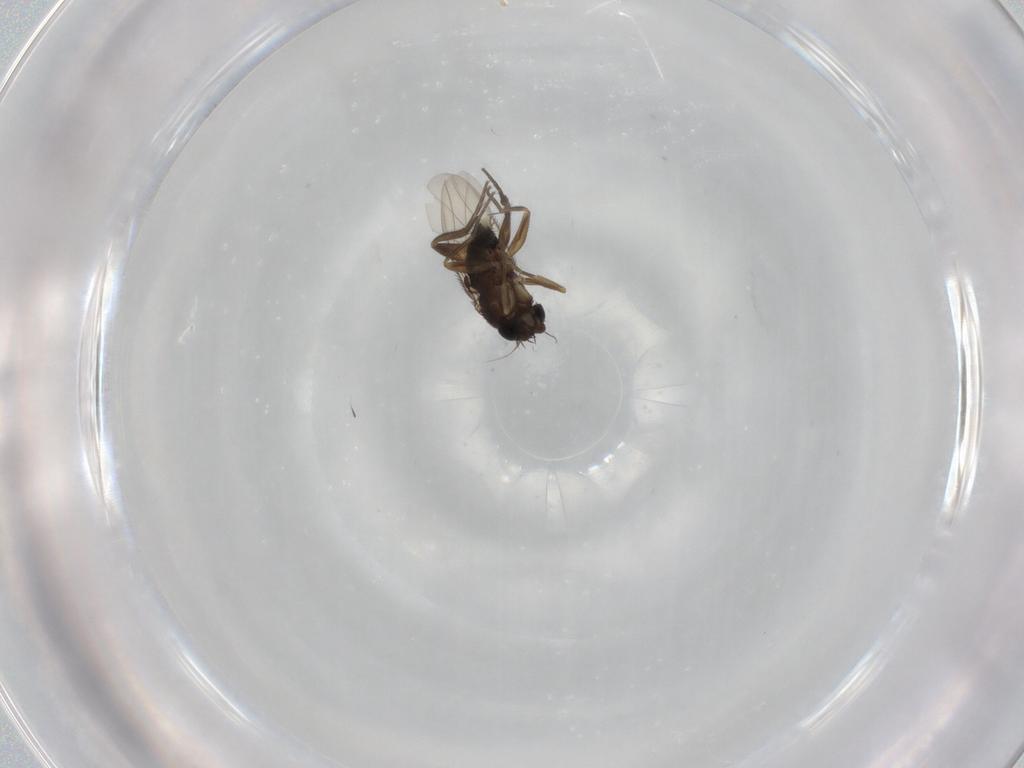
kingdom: Animalia
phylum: Arthropoda
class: Insecta
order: Diptera
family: Phoridae
